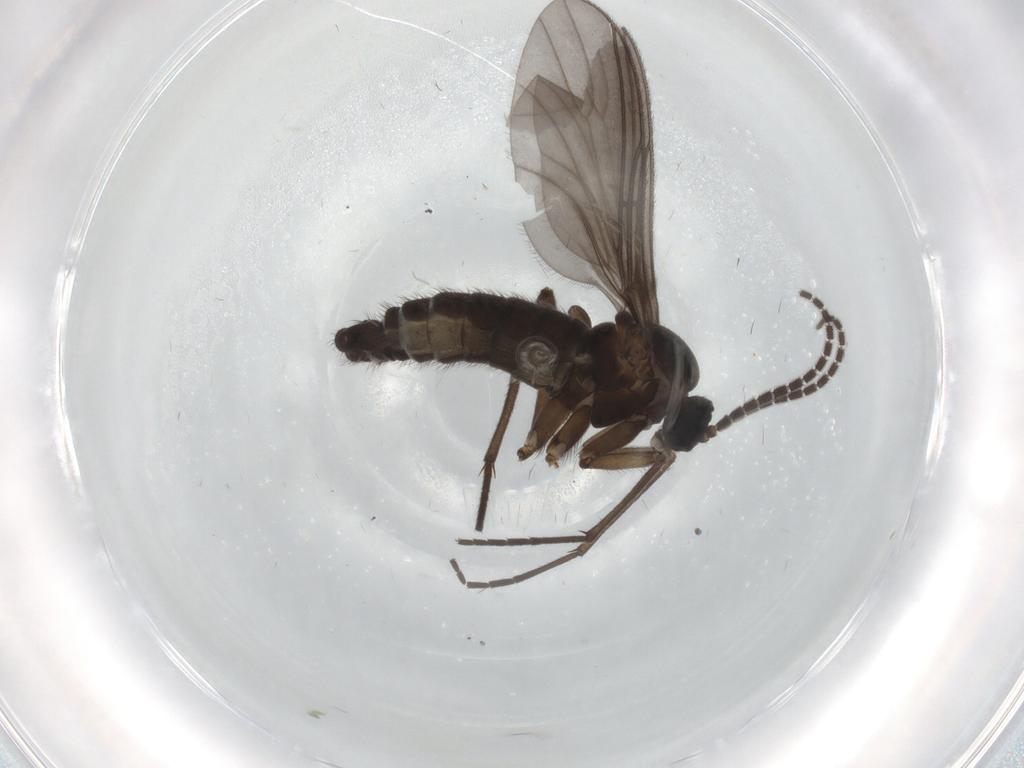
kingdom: Animalia
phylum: Arthropoda
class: Insecta
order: Diptera
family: Sciaridae
